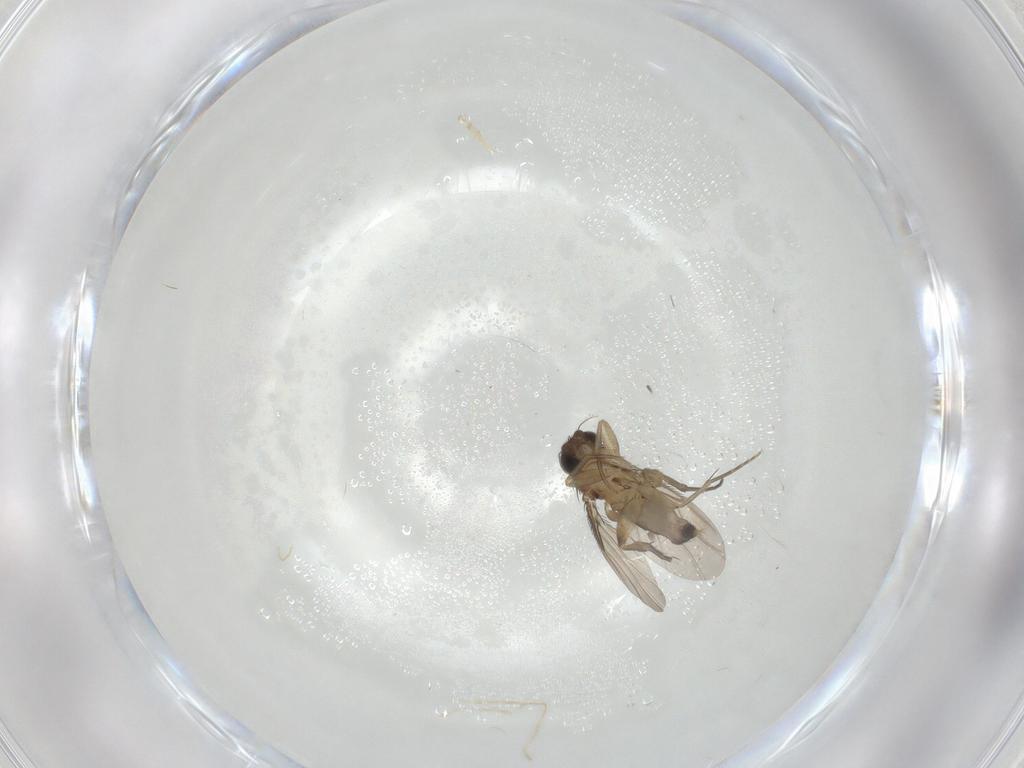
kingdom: Animalia
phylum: Arthropoda
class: Insecta
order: Diptera
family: Phoridae
